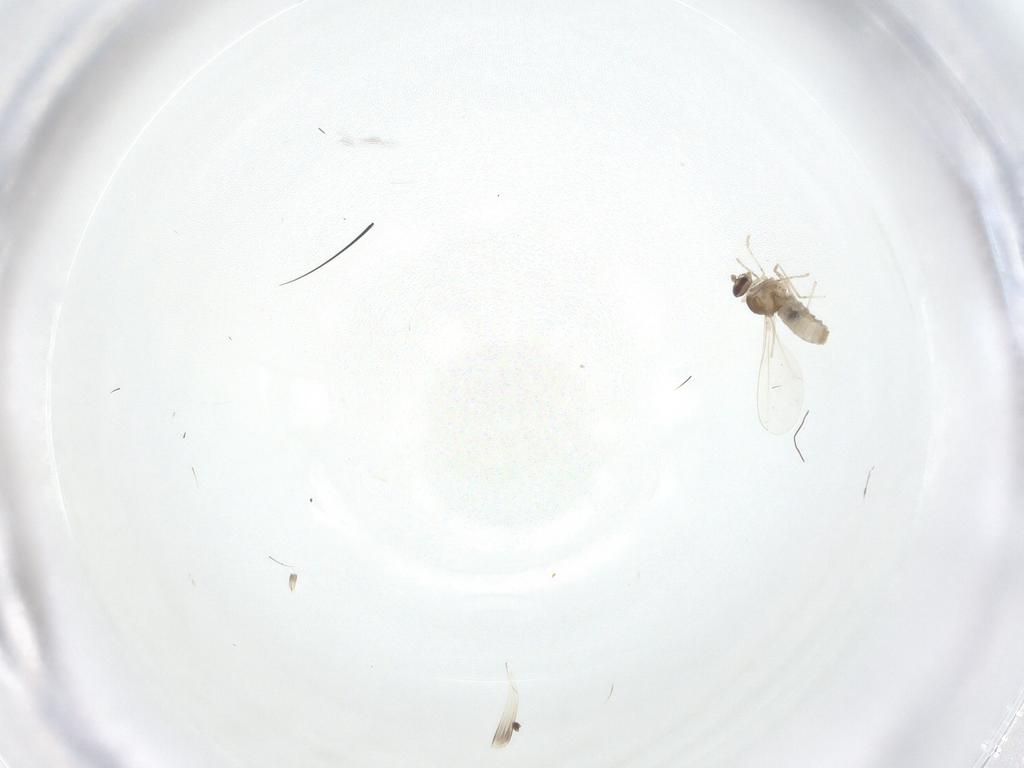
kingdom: Animalia
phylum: Arthropoda
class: Insecta
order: Diptera
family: Cecidomyiidae
